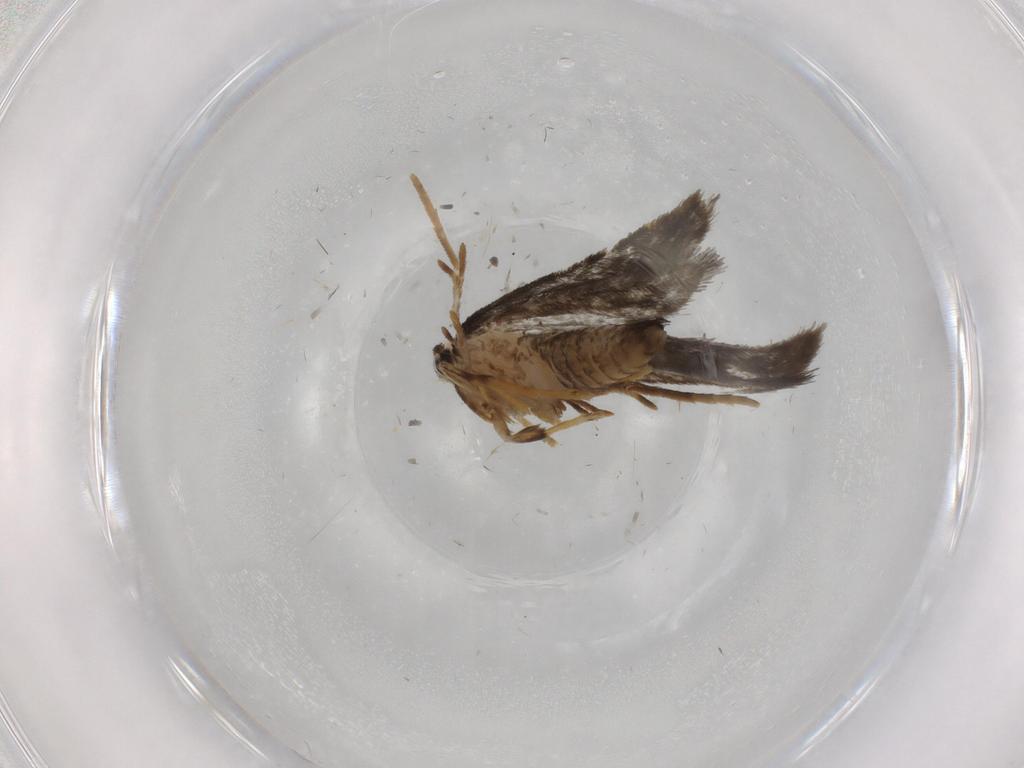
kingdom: Animalia
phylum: Arthropoda
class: Insecta
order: Lepidoptera
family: Psychidae
